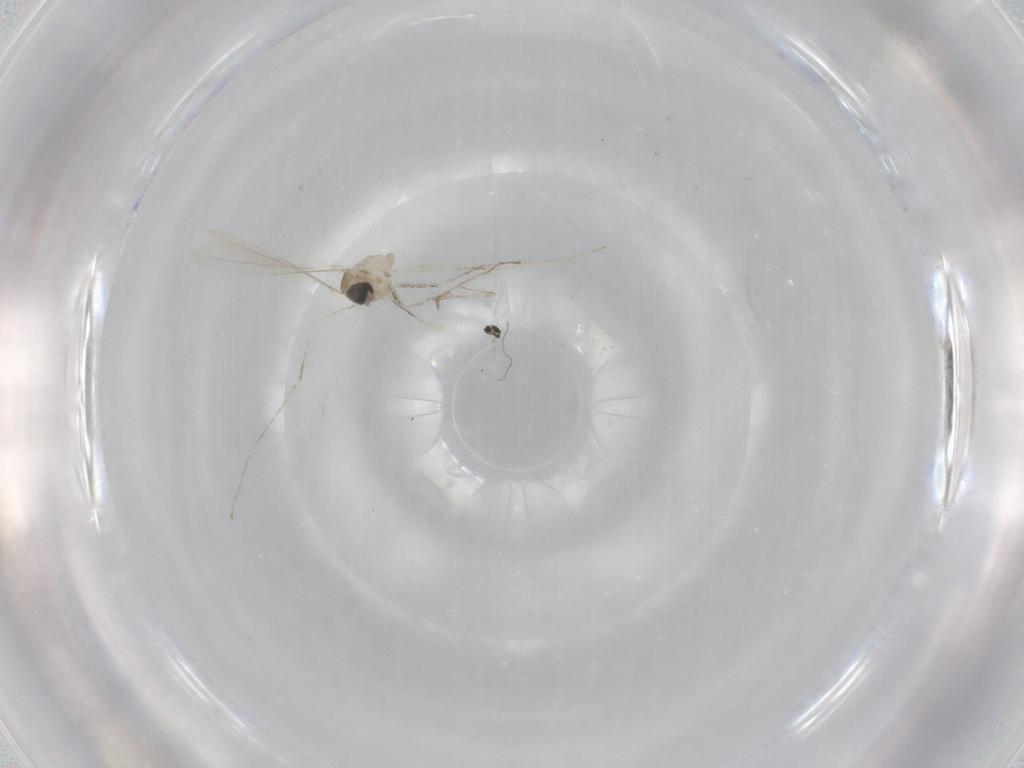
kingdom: Animalia
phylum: Arthropoda
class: Insecta
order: Diptera
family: Cecidomyiidae
